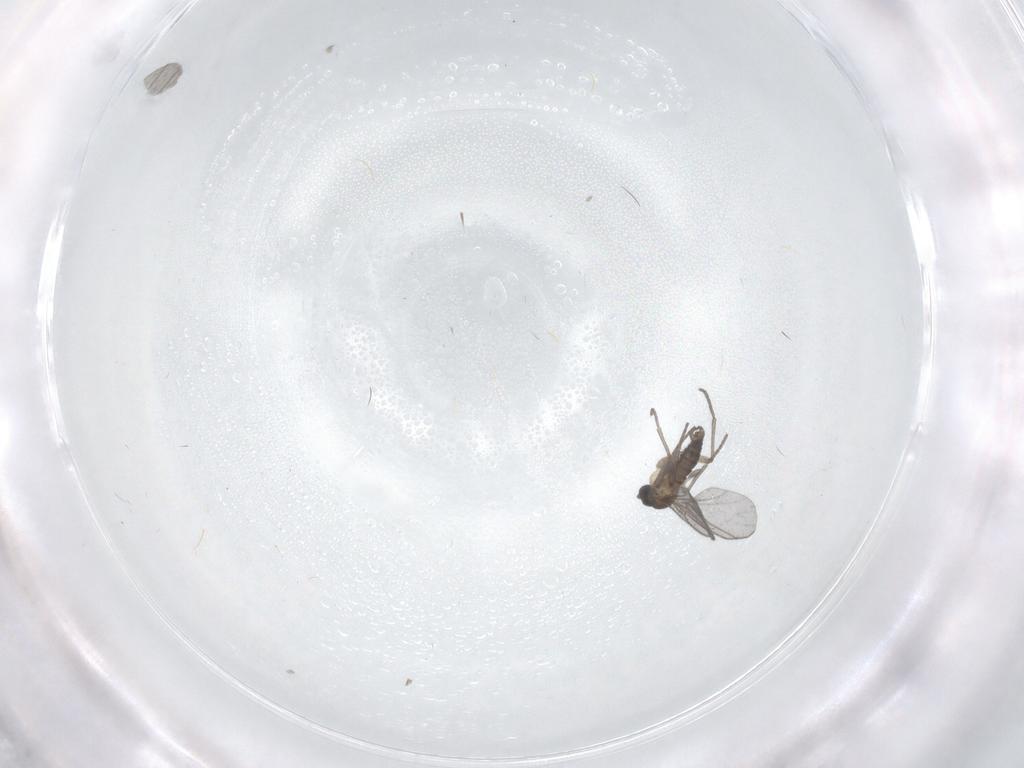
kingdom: Animalia
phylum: Arthropoda
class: Insecta
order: Diptera
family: Sciaridae
